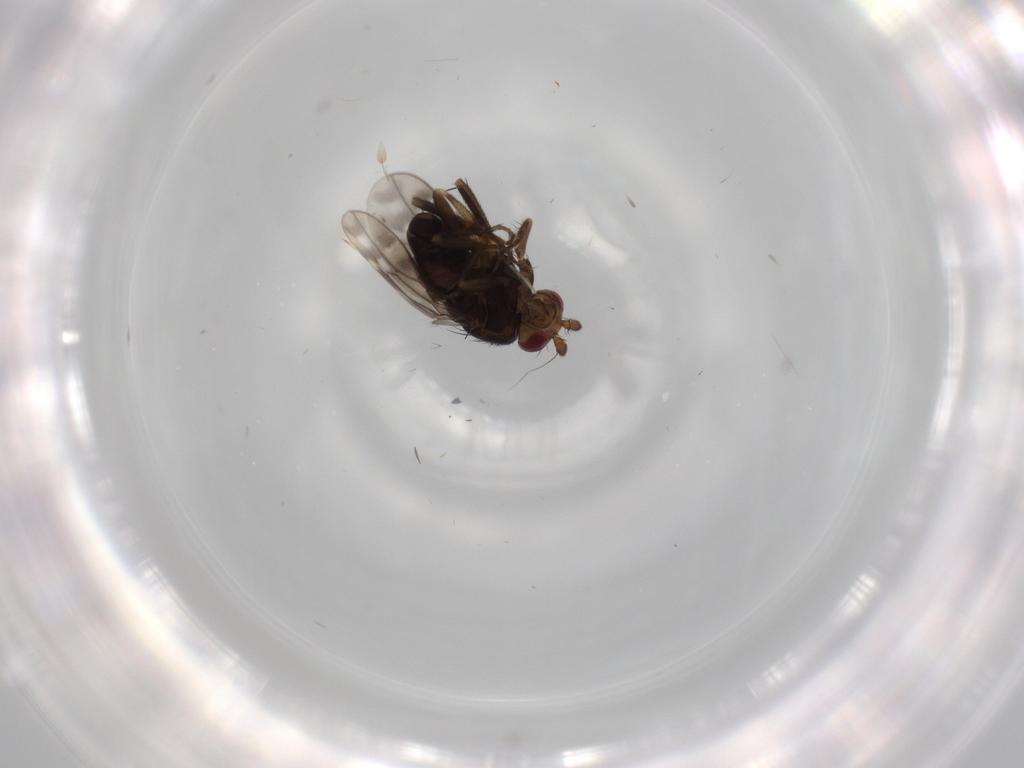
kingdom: Animalia
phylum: Arthropoda
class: Insecta
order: Diptera
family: Sphaeroceridae
